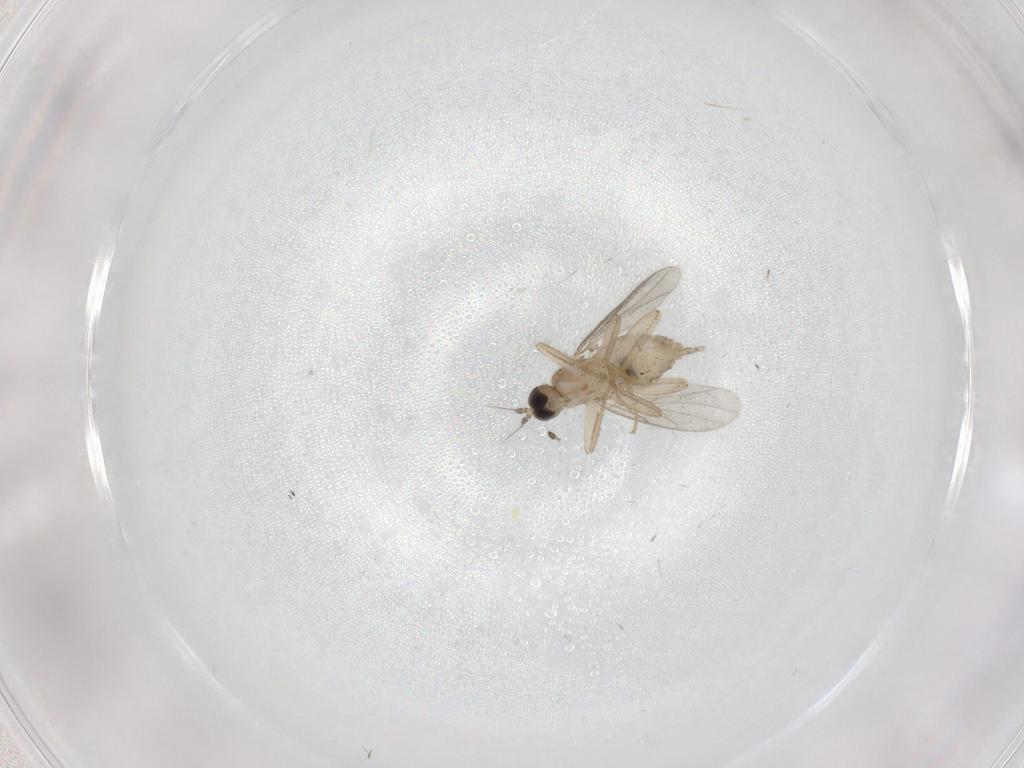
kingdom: Animalia
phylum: Arthropoda
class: Insecta
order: Diptera
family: Hybotidae
